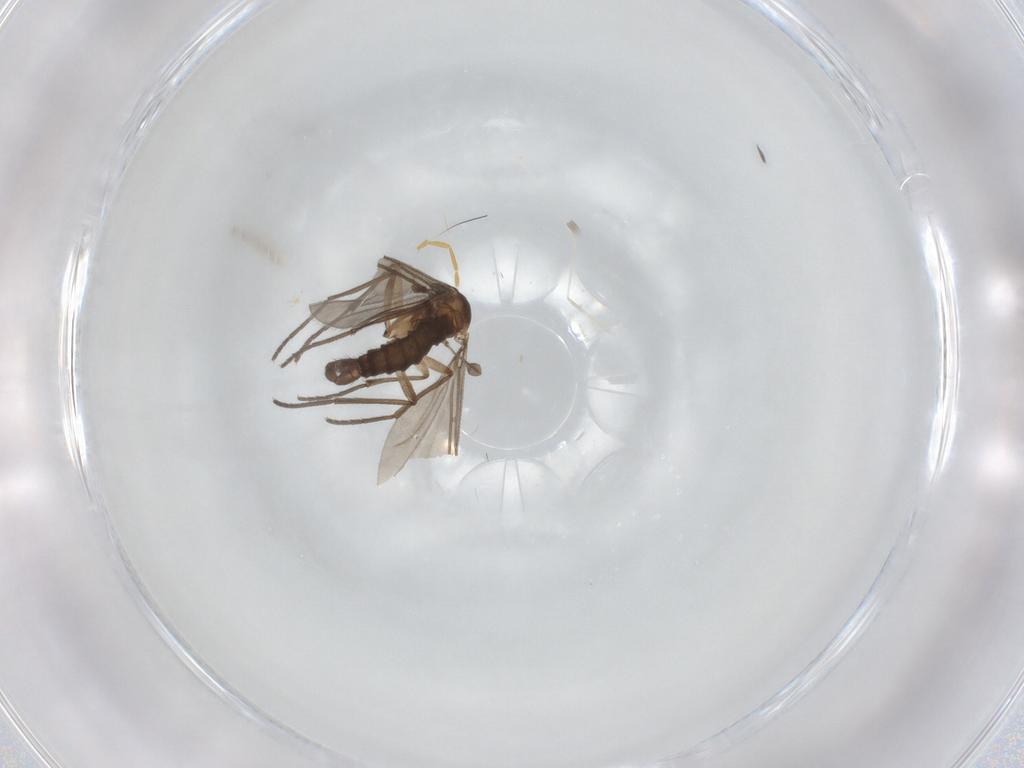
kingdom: Animalia
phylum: Arthropoda
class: Insecta
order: Diptera
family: Sciaridae
